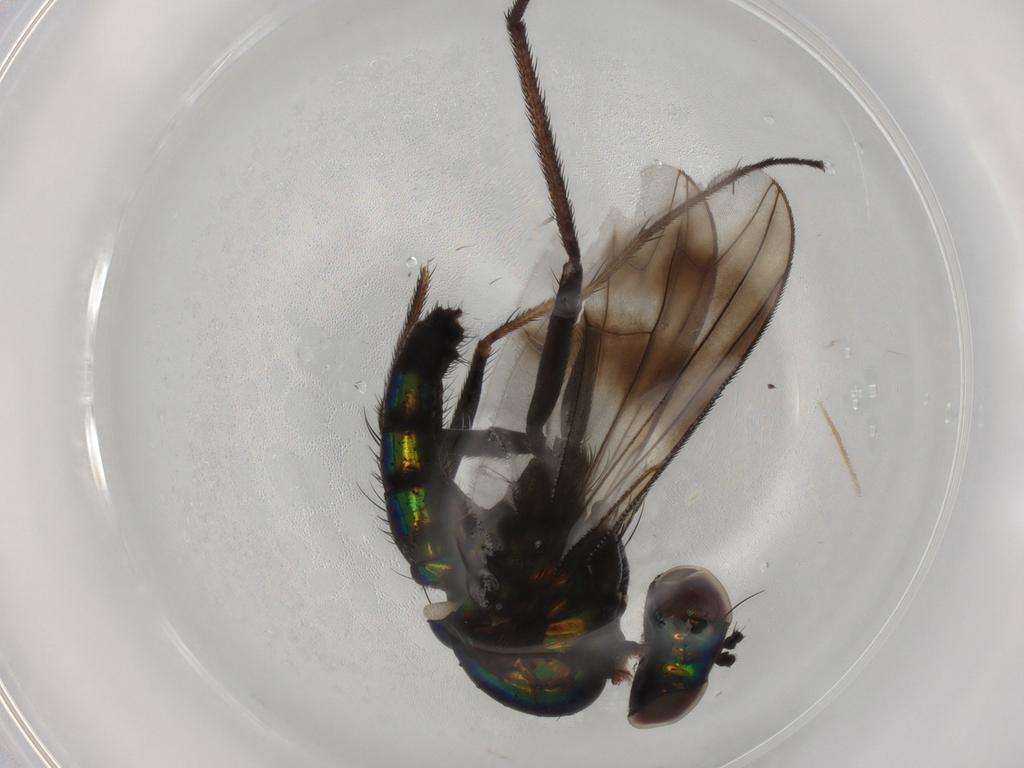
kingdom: Animalia
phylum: Arthropoda
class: Insecta
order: Diptera
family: Dolichopodidae
